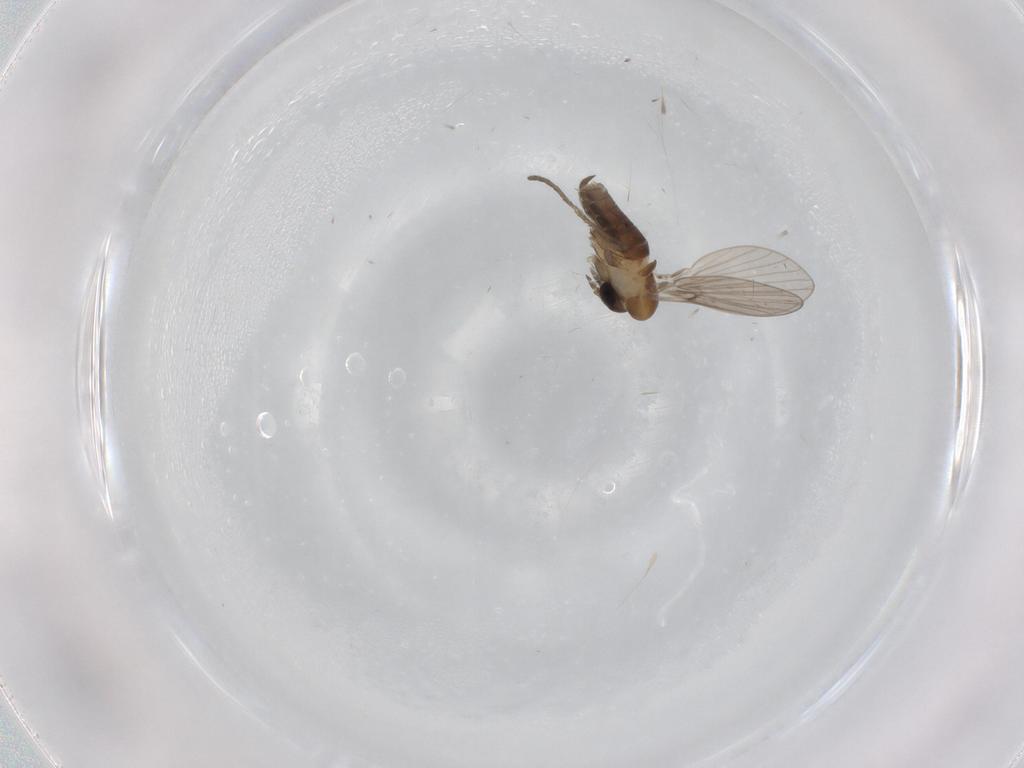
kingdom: Animalia
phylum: Arthropoda
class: Insecta
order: Diptera
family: Psychodidae
